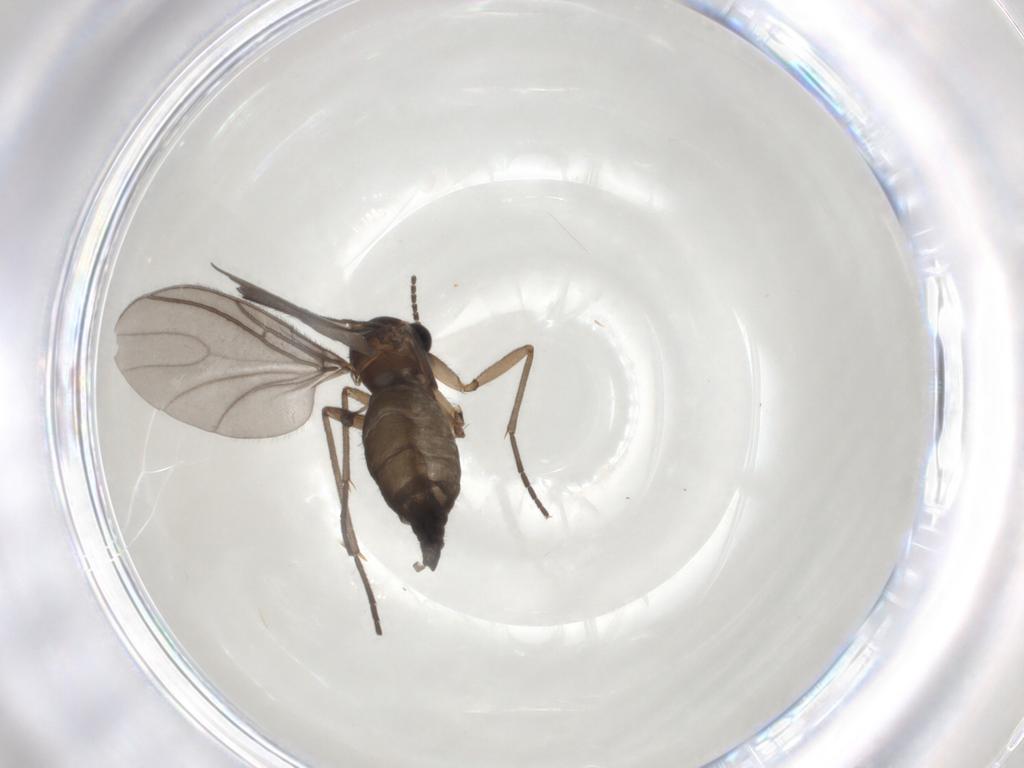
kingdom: Animalia
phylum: Arthropoda
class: Insecta
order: Diptera
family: Sciaridae
